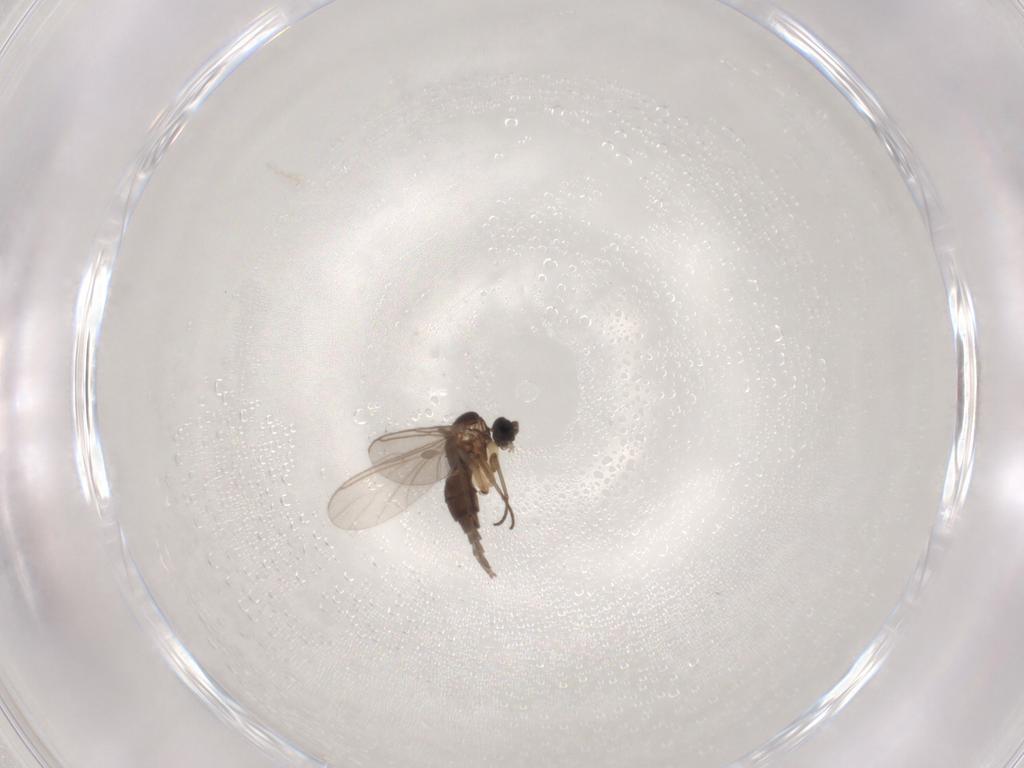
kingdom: Animalia
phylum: Arthropoda
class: Insecta
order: Diptera
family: Sciaridae
